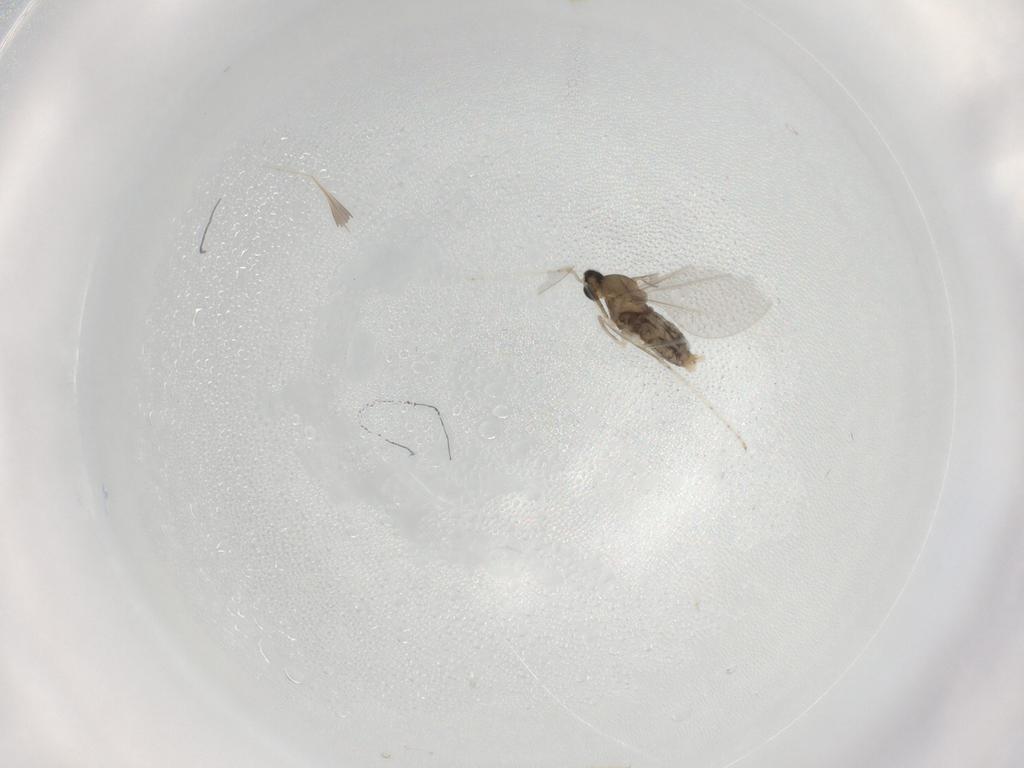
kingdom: Animalia
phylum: Arthropoda
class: Insecta
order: Diptera
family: Cecidomyiidae
